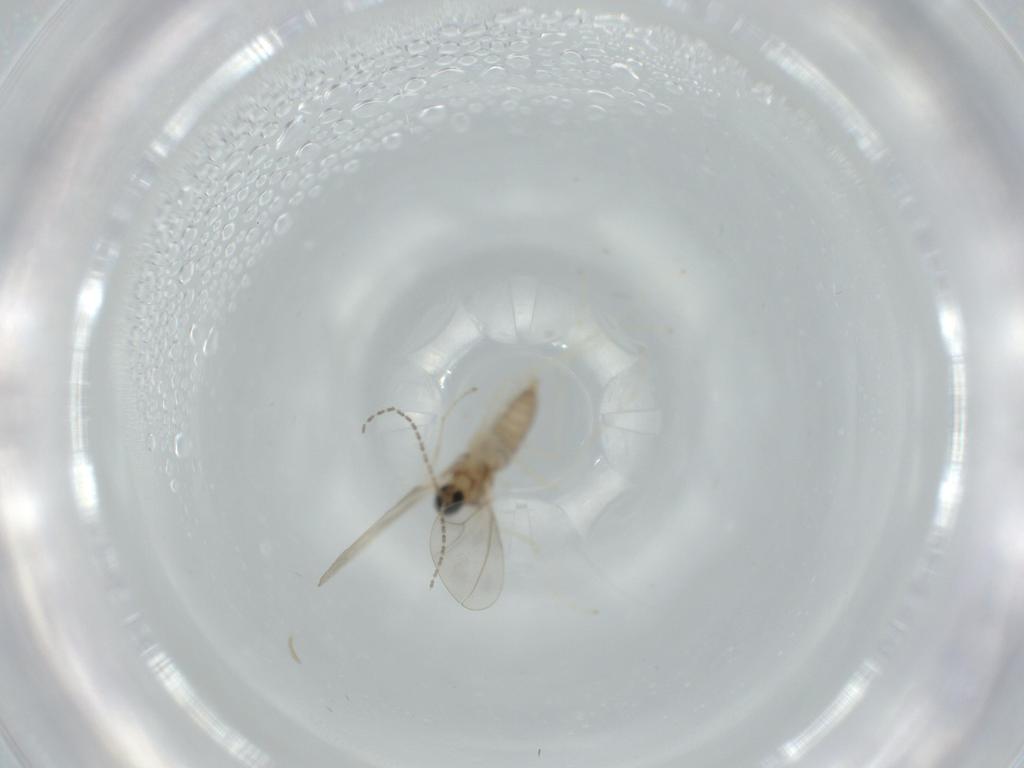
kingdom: Animalia
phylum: Arthropoda
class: Insecta
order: Diptera
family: Cecidomyiidae
